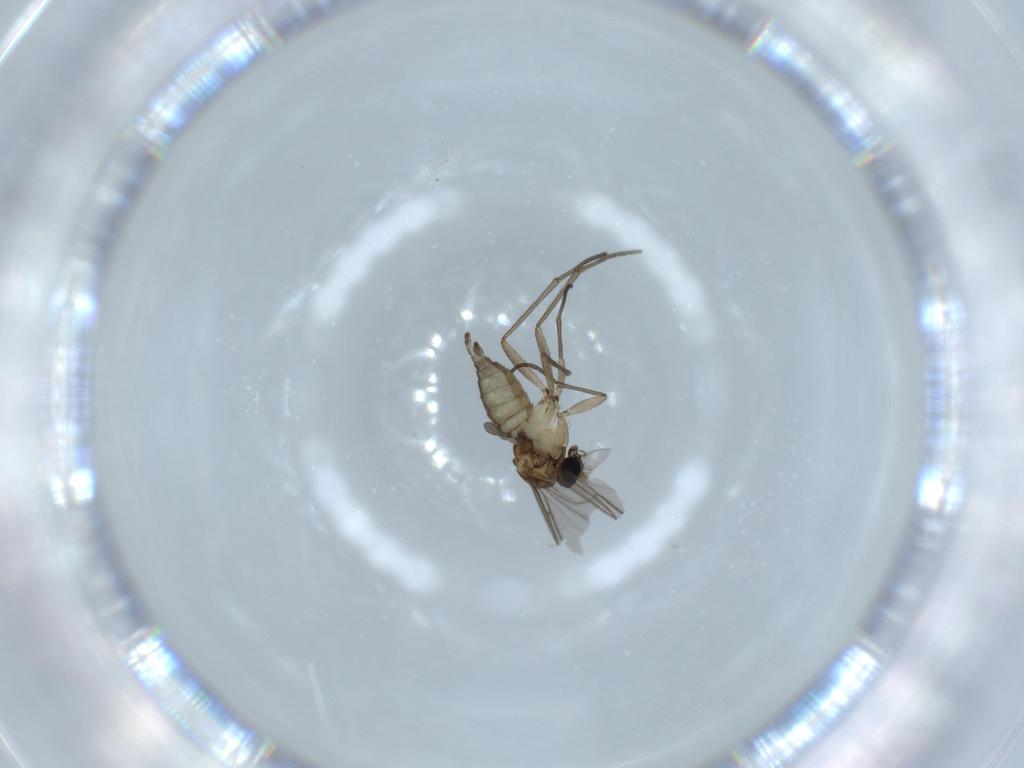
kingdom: Animalia
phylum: Arthropoda
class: Insecta
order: Diptera
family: Sciaridae
